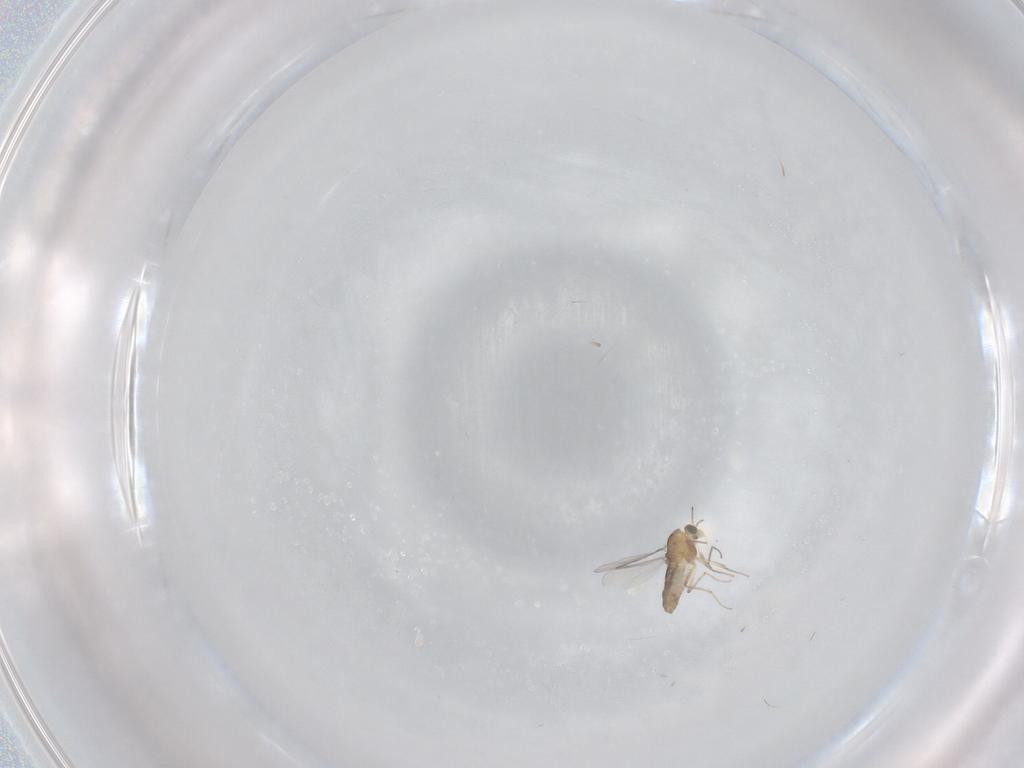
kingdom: Animalia
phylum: Arthropoda
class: Insecta
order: Diptera
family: Chironomidae
